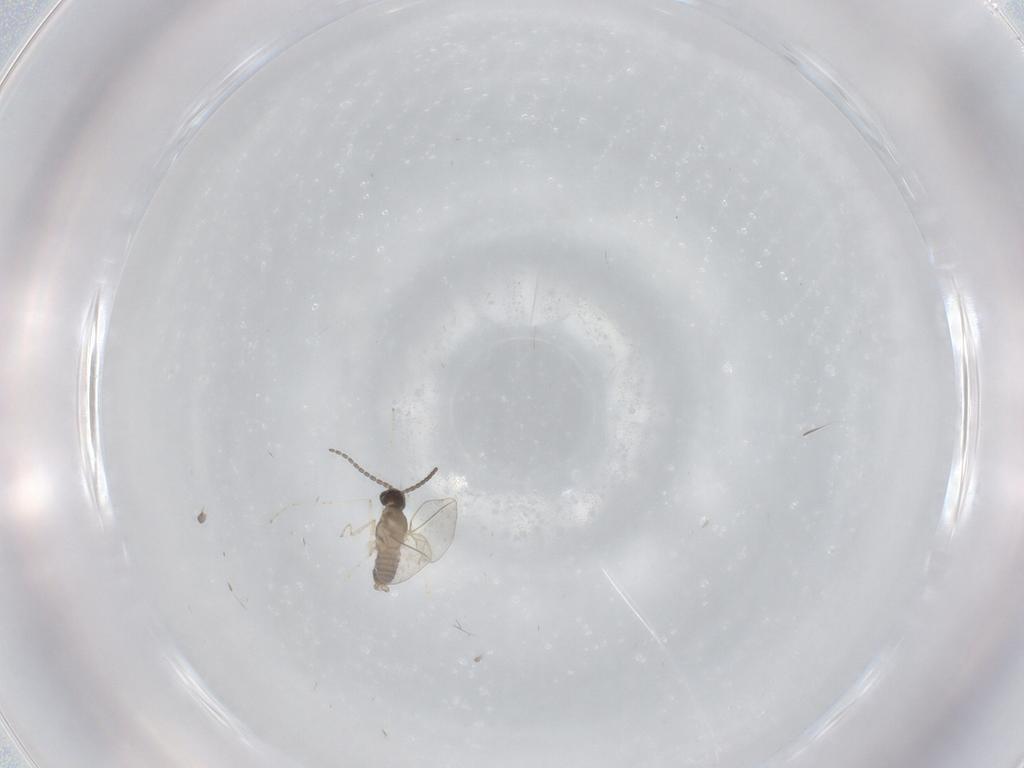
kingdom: Animalia
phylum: Arthropoda
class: Insecta
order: Diptera
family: Cecidomyiidae
